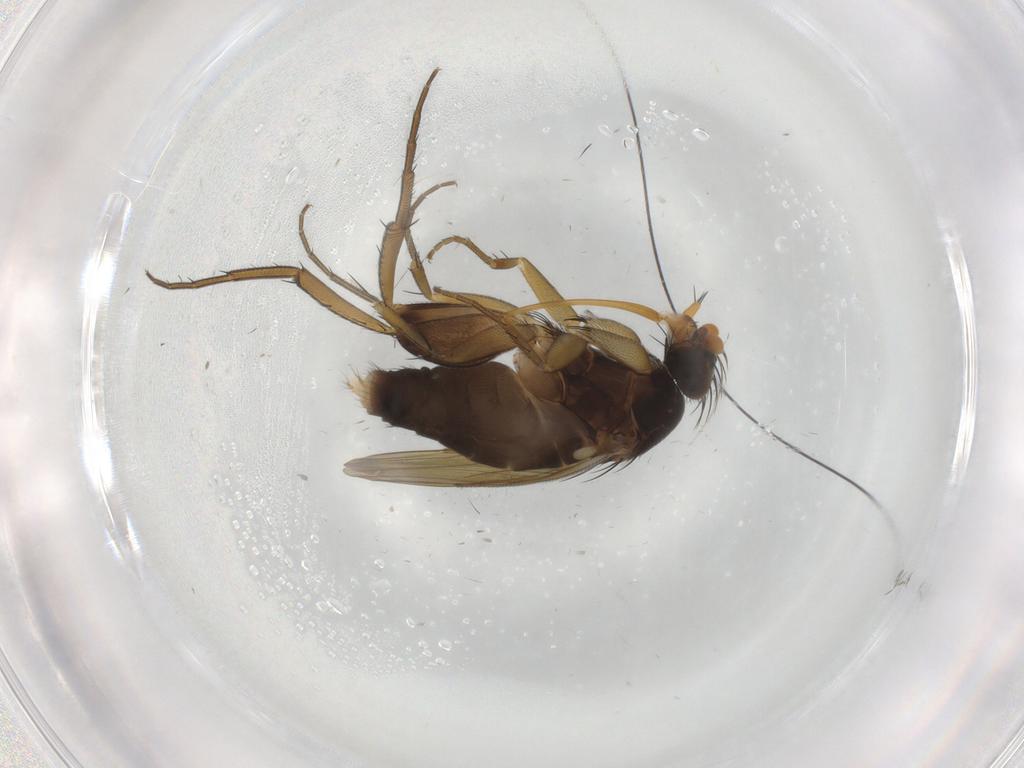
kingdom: Animalia
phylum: Arthropoda
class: Insecta
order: Diptera
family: Phoridae
